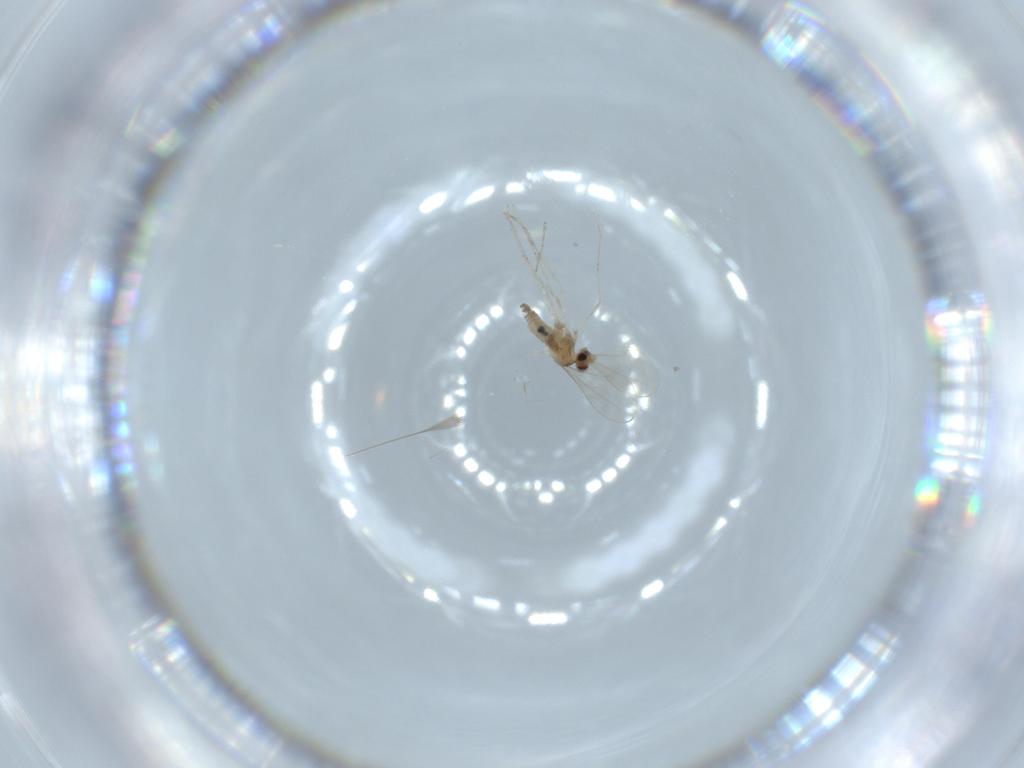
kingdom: Animalia
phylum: Arthropoda
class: Insecta
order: Diptera
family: Cecidomyiidae
